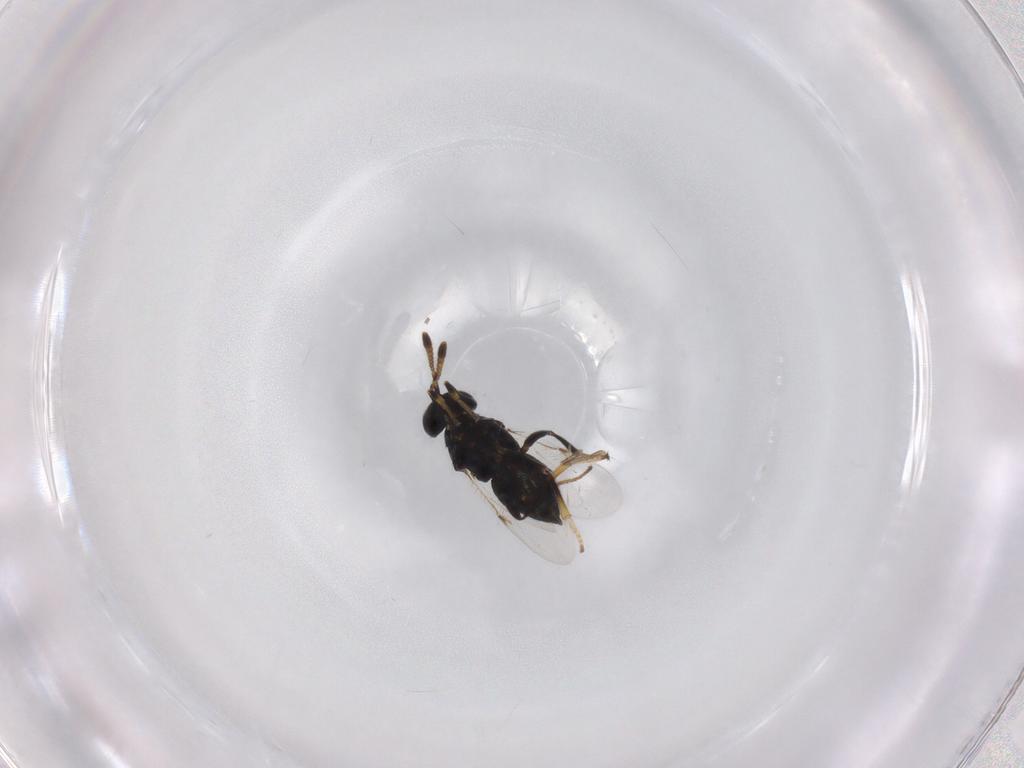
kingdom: Animalia
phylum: Arthropoda
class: Insecta
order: Hymenoptera
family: Encyrtidae
